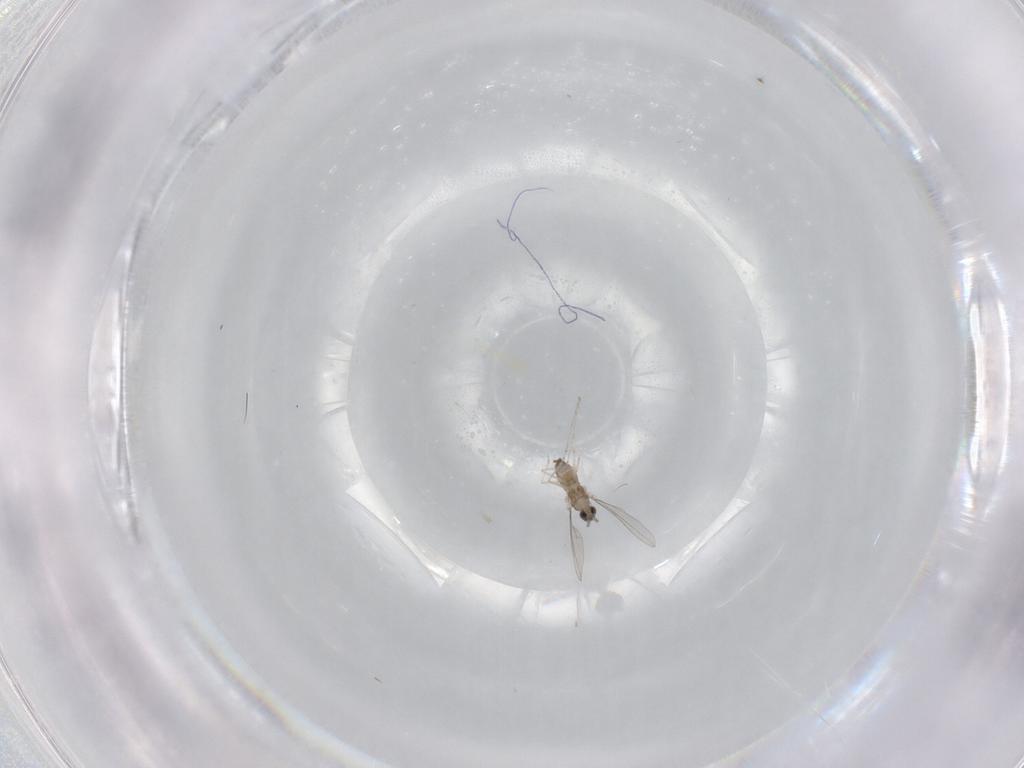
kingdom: Animalia
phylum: Arthropoda
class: Insecta
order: Diptera
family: Cecidomyiidae
